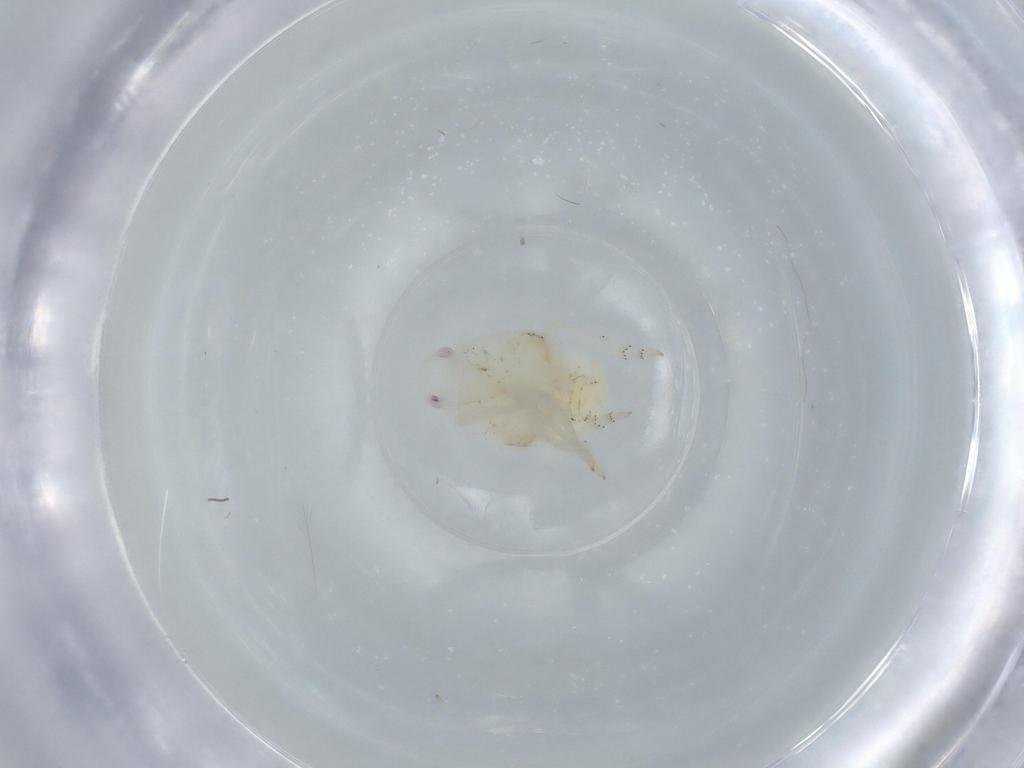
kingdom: Animalia
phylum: Arthropoda
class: Insecta
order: Hemiptera
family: Flatidae
